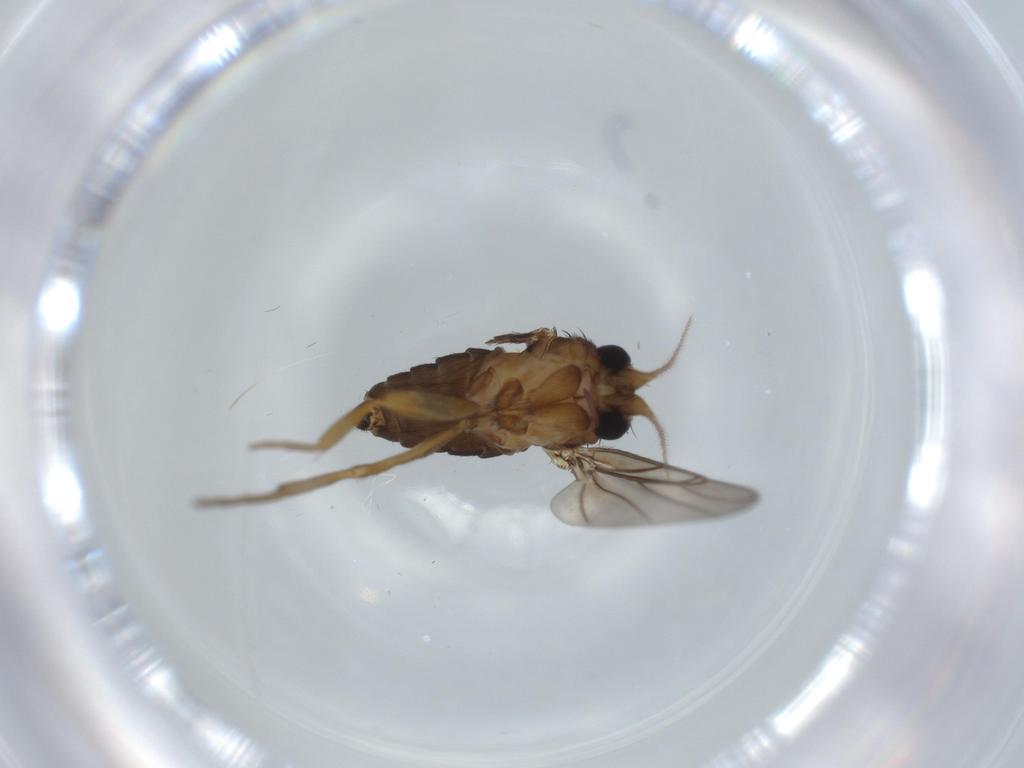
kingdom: Animalia
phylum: Arthropoda
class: Insecta
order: Diptera
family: Phoridae
